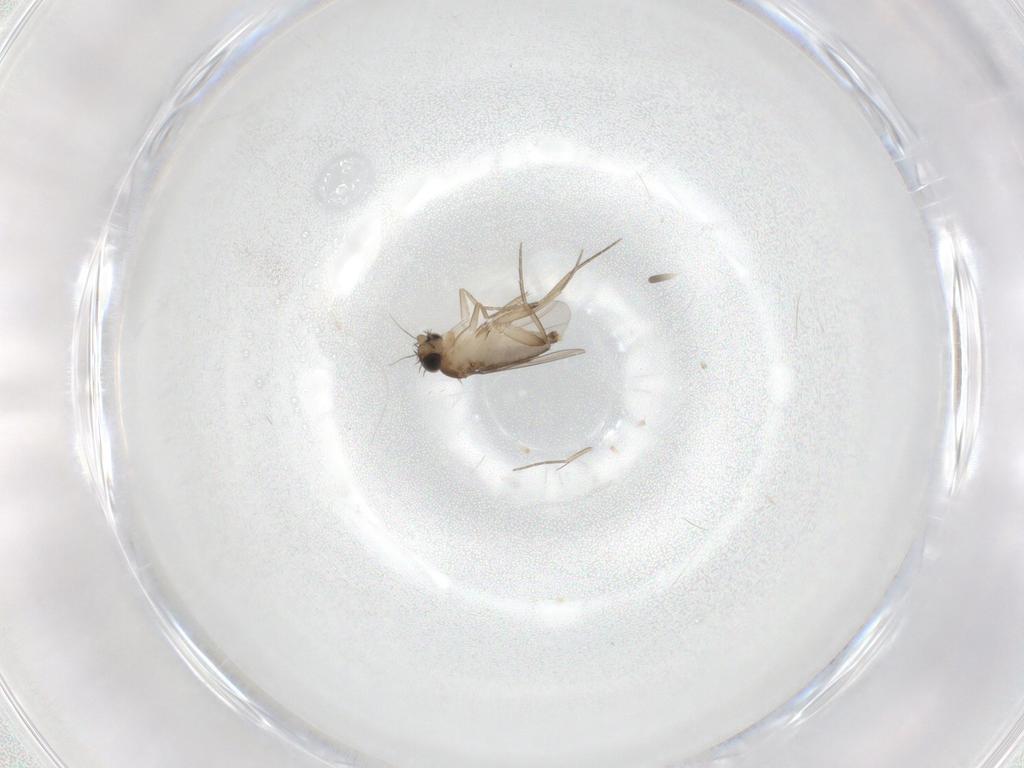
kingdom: Animalia
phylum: Arthropoda
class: Insecta
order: Diptera
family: Phoridae
